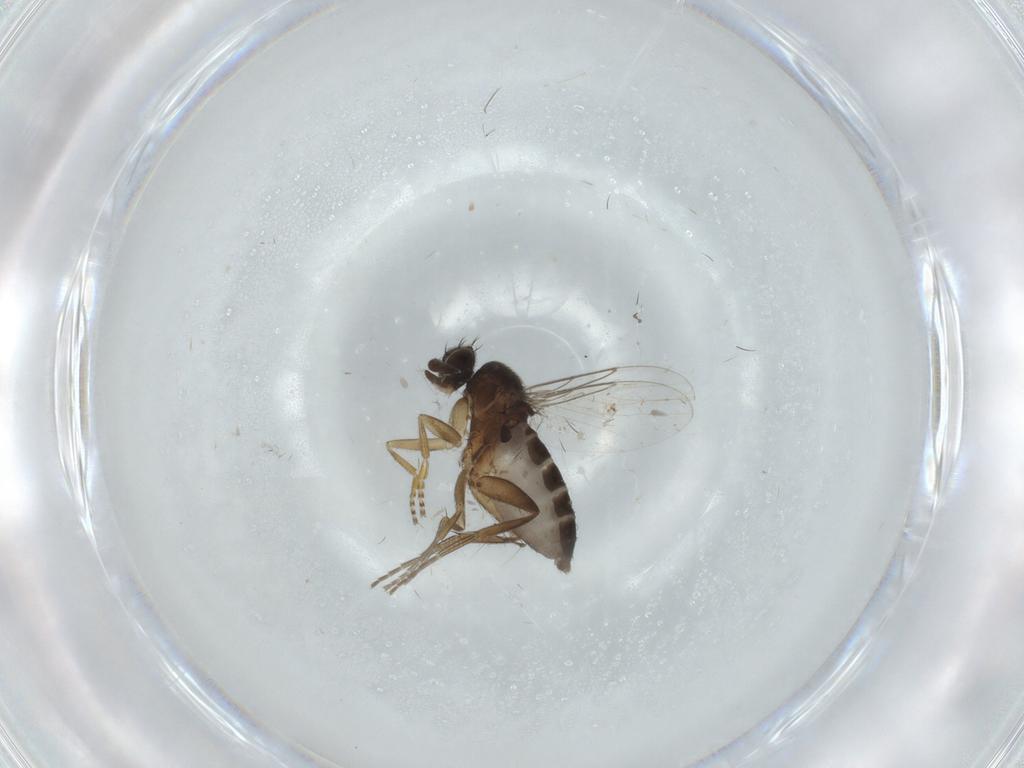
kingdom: Animalia
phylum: Arthropoda
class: Insecta
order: Diptera
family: Phoridae
